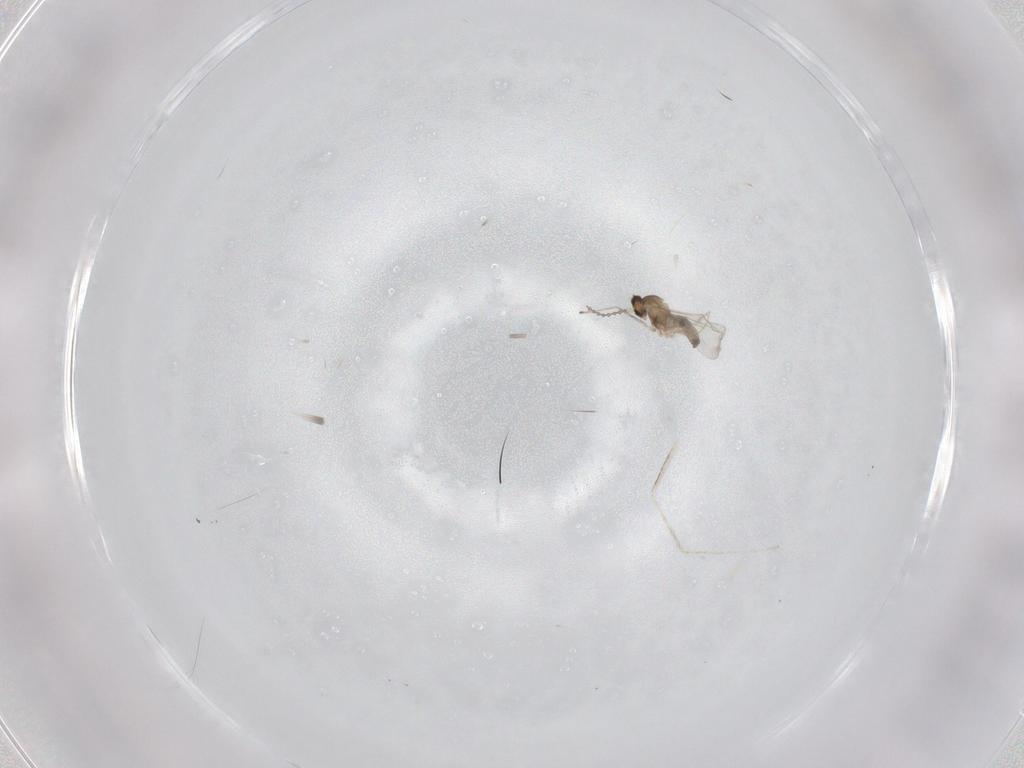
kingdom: Animalia
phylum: Arthropoda
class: Insecta
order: Diptera
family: Cecidomyiidae
